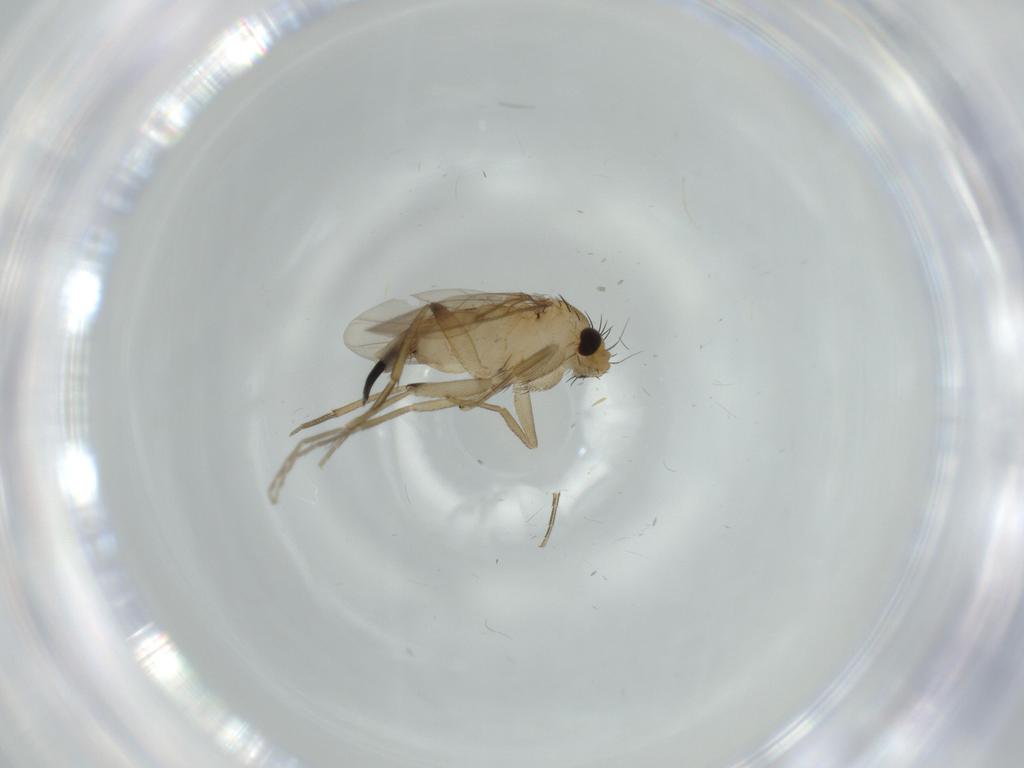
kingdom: Animalia
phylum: Arthropoda
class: Insecta
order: Diptera
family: Phoridae
